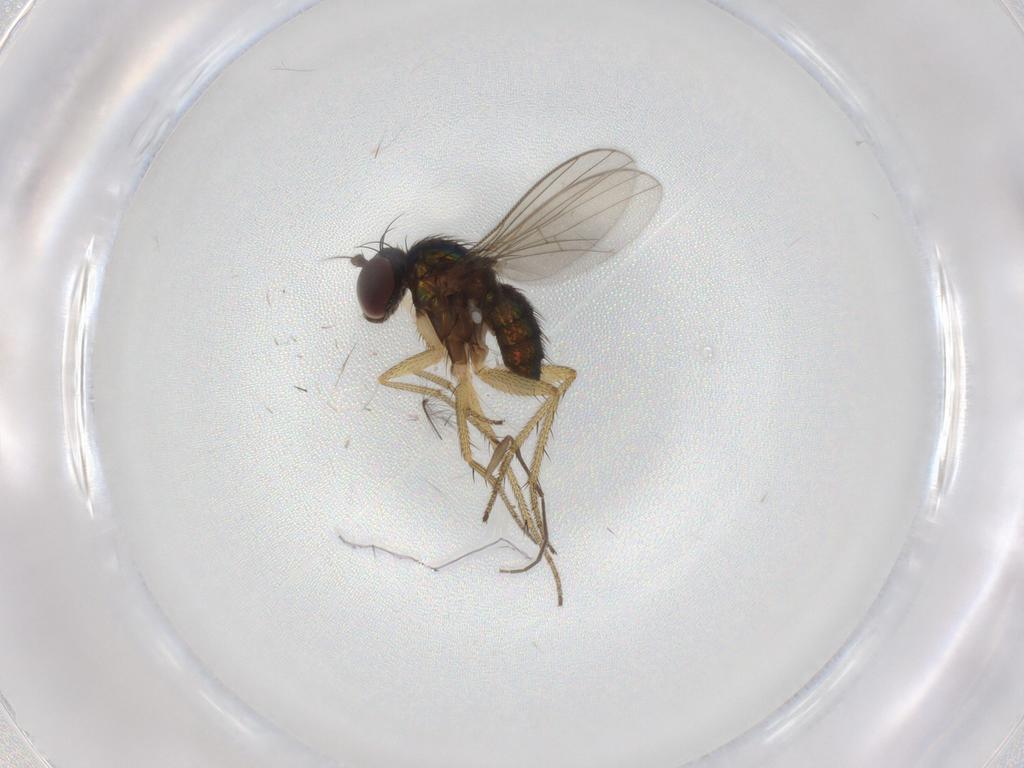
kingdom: Animalia
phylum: Arthropoda
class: Insecta
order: Diptera
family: Chironomidae
